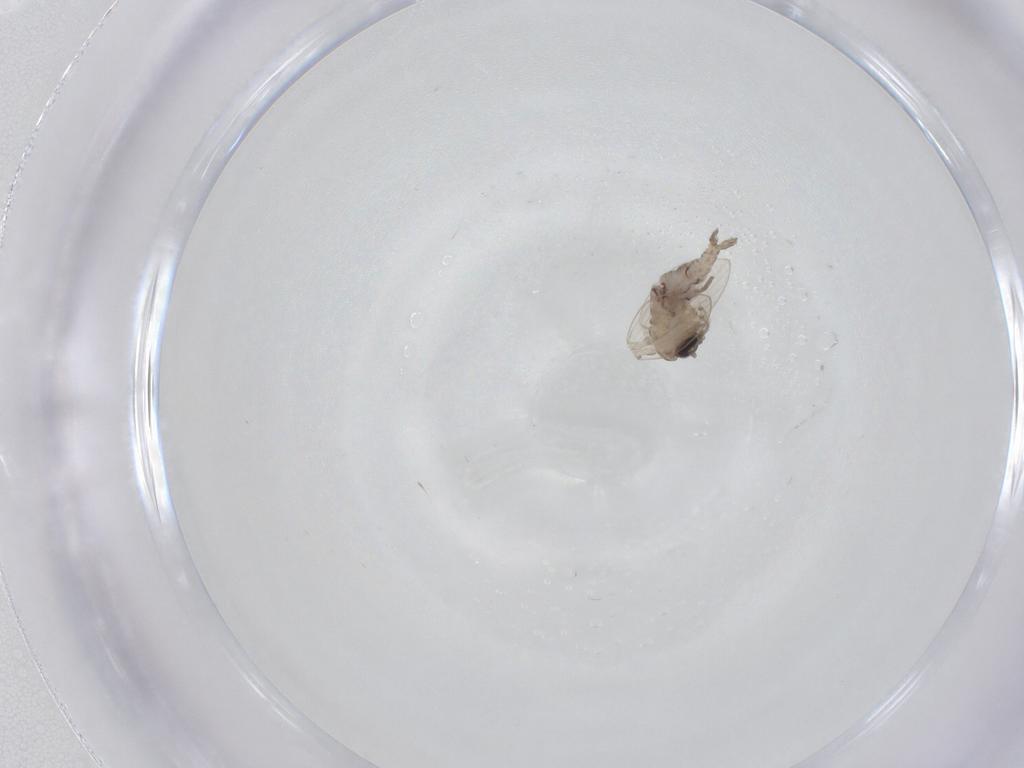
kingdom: Animalia
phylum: Arthropoda
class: Insecta
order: Diptera
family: Psychodidae
